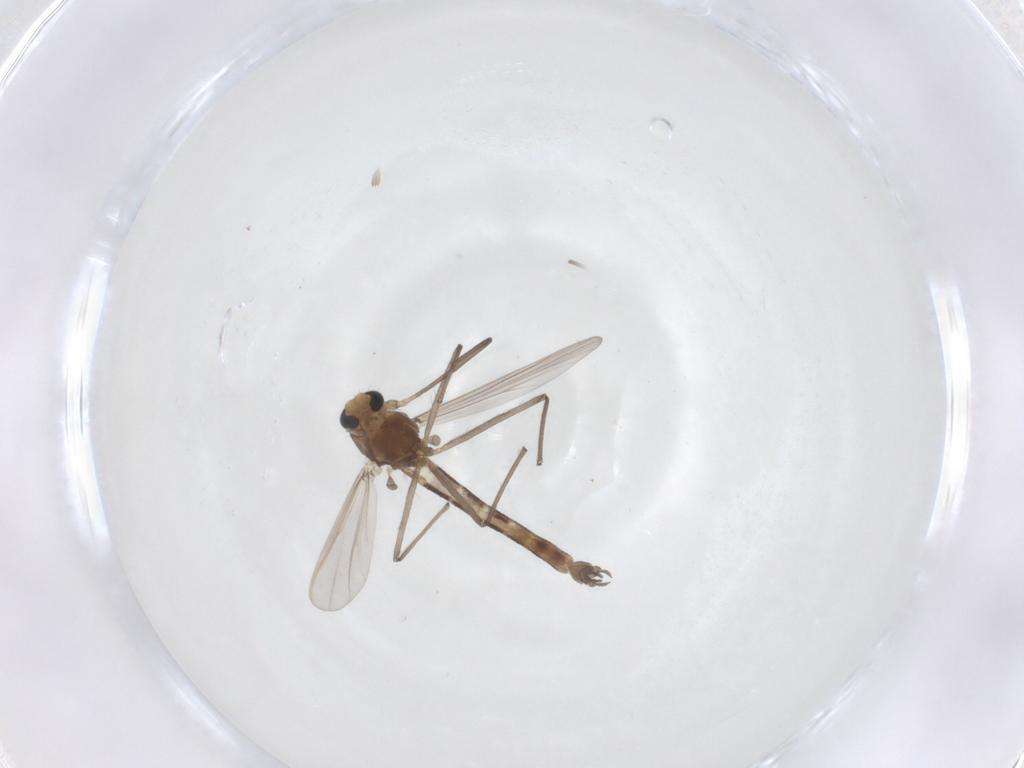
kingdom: Animalia
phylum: Arthropoda
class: Insecta
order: Diptera
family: Chironomidae
